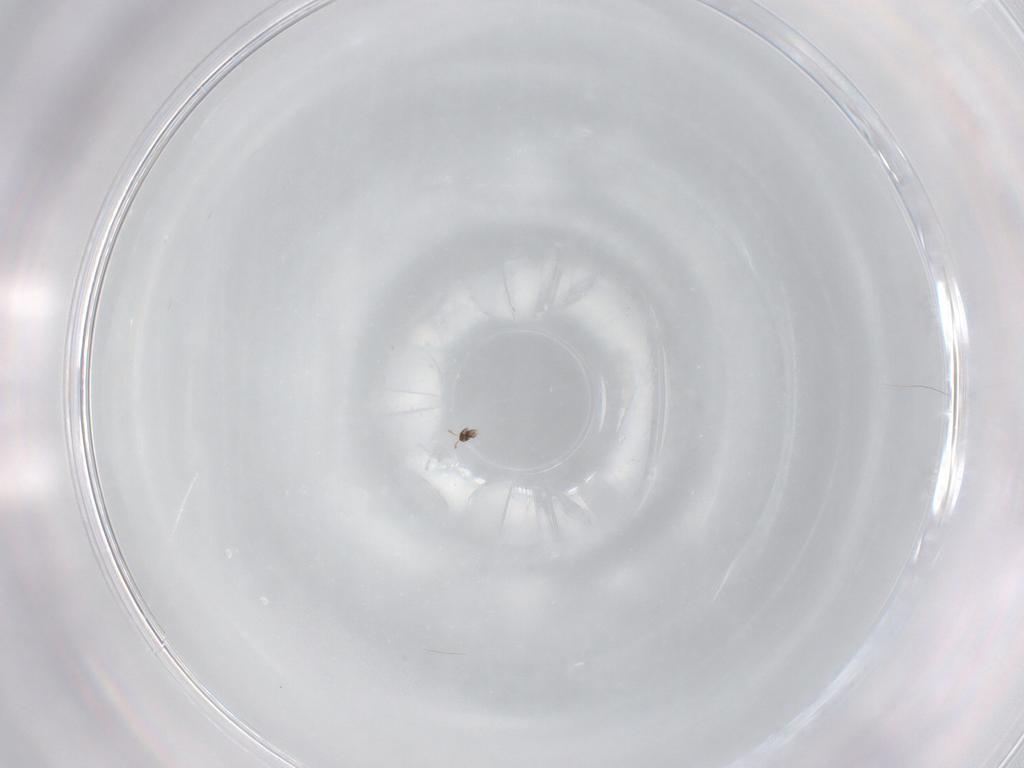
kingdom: Animalia
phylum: Arthropoda
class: Insecta
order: Hymenoptera
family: Mymaridae
